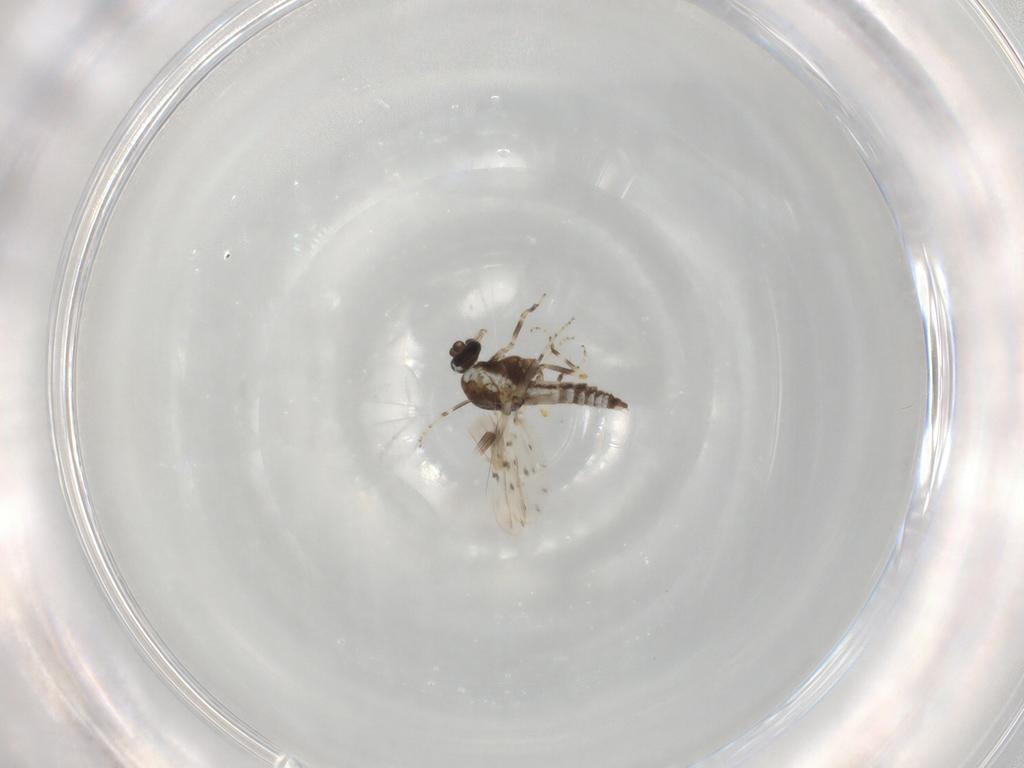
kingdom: Animalia
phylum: Arthropoda
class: Insecta
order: Diptera
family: Ceratopogonidae
